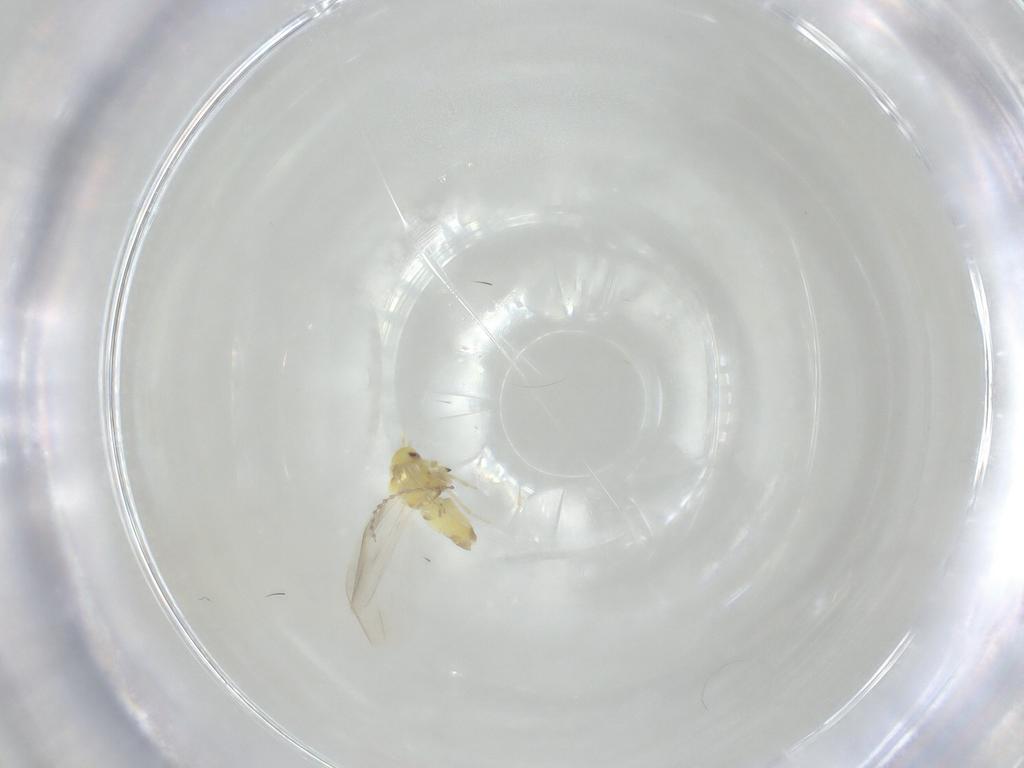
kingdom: Animalia
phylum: Arthropoda
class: Insecta
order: Hemiptera
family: Aleyrodidae
